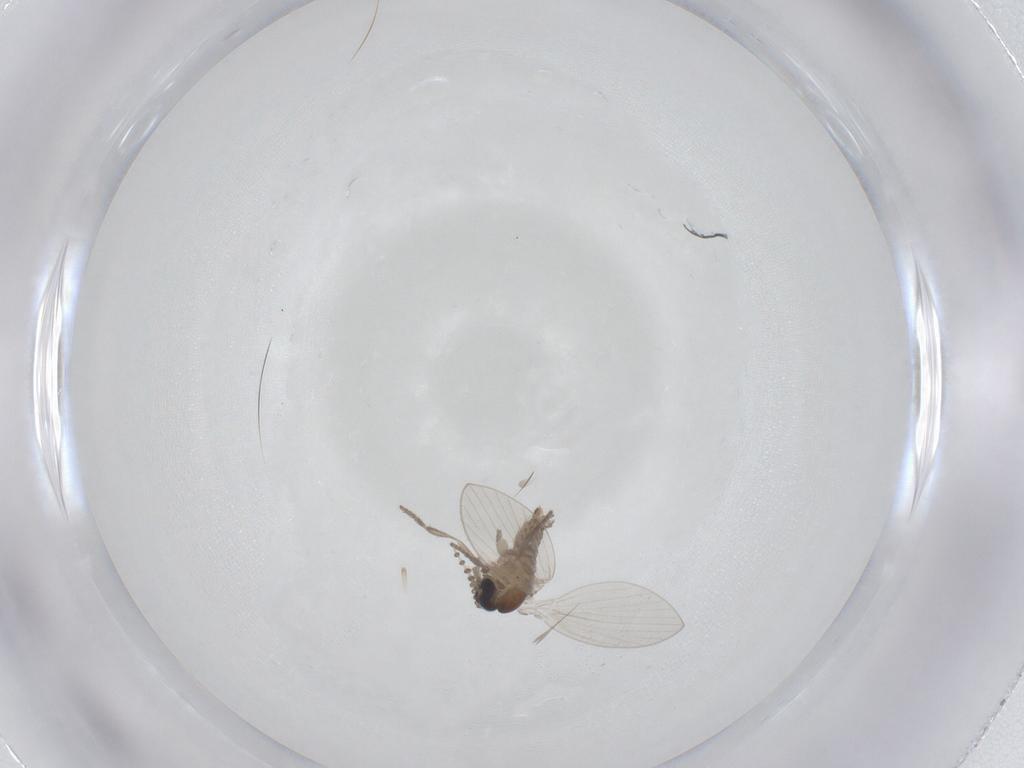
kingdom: Animalia
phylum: Arthropoda
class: Insecta
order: Diptera
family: Psychodidae
